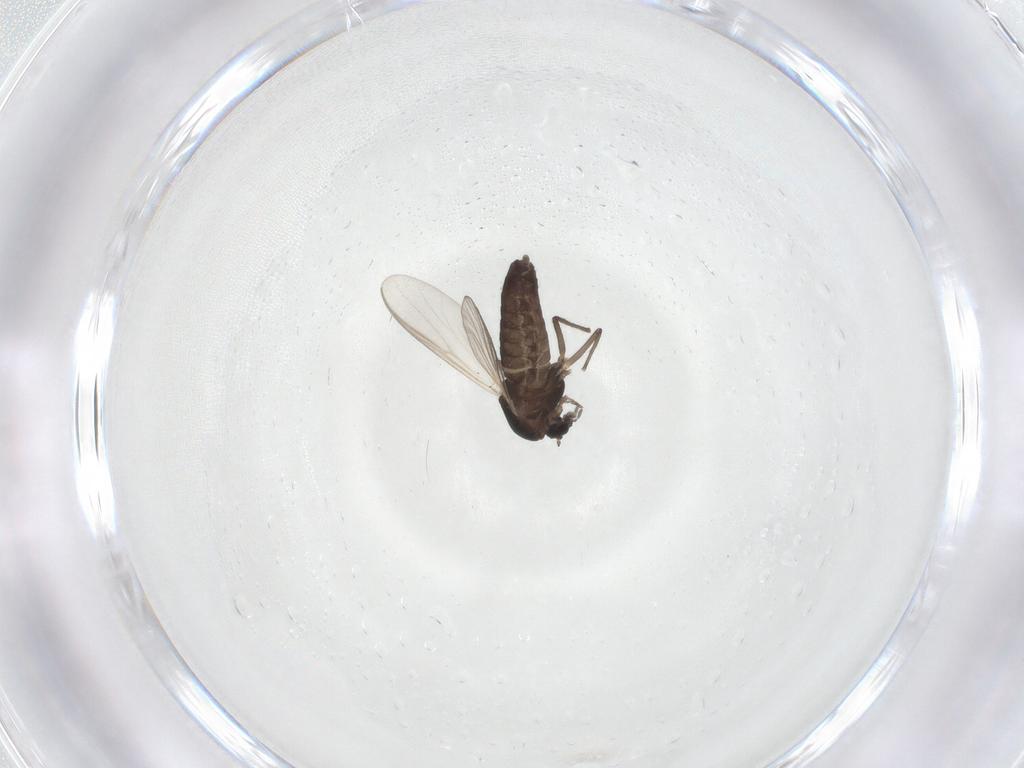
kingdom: Animalia
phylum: Arthropoda
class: Insecta
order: Diptera
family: Chironomidae
